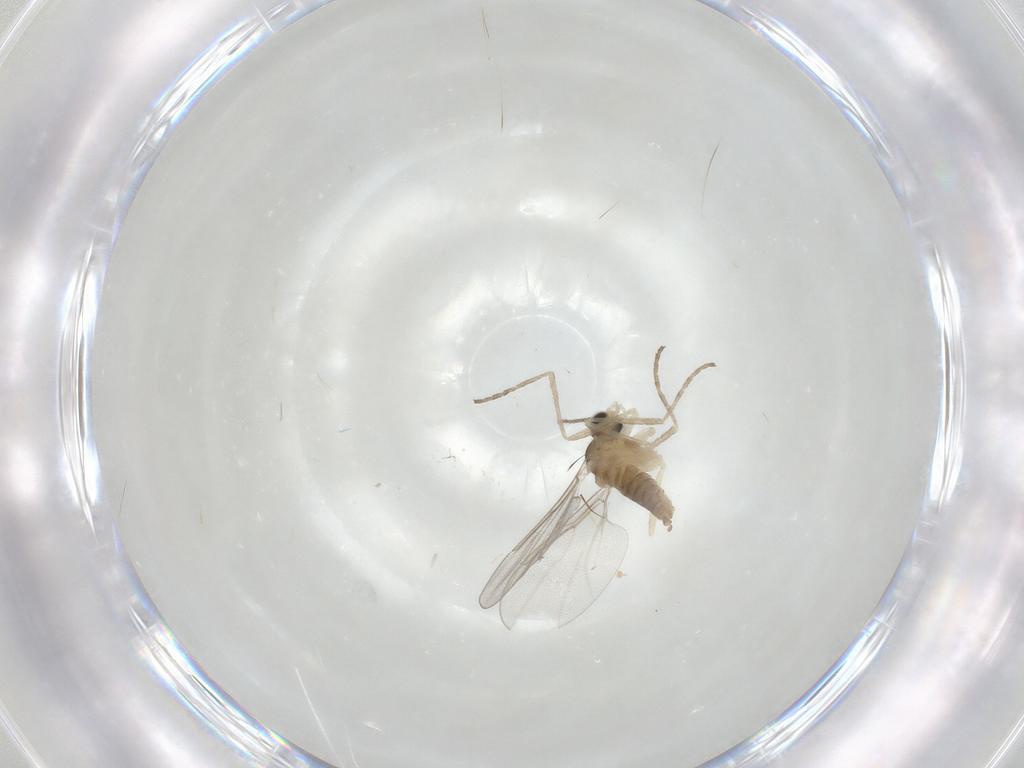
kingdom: Animalia
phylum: Arthropoda
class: Insecta
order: Diptera
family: Cecidomyiidae
